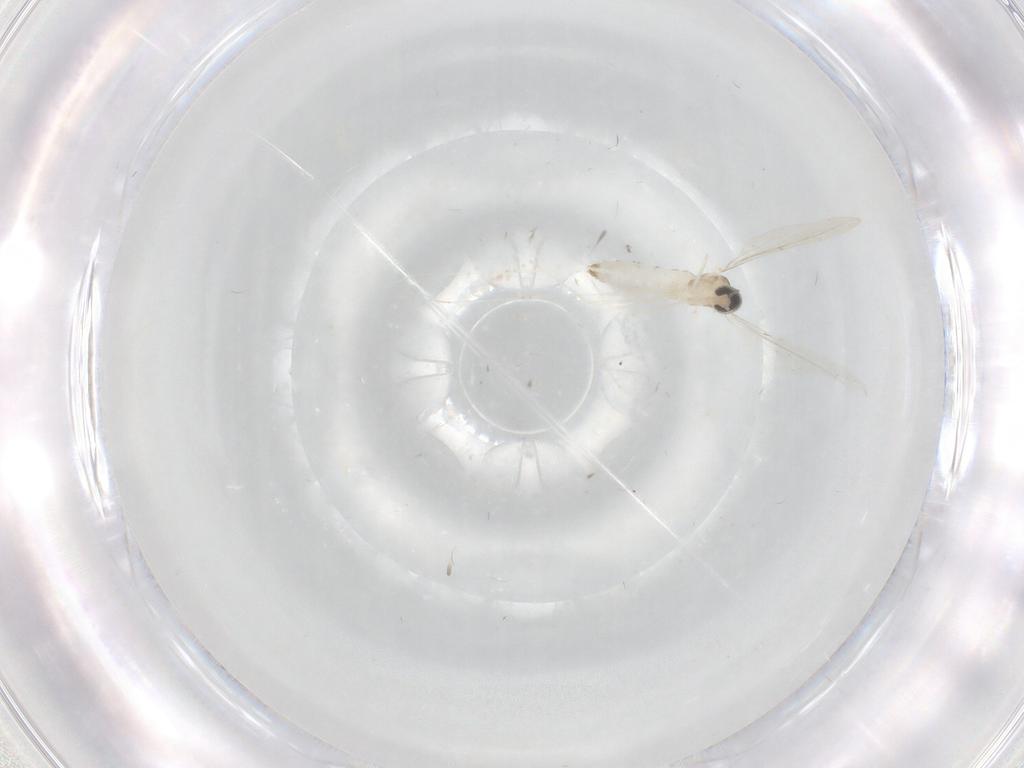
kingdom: Animalia
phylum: Arthropoda
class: Insecta
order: Diptera
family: Cecidomyiidae
